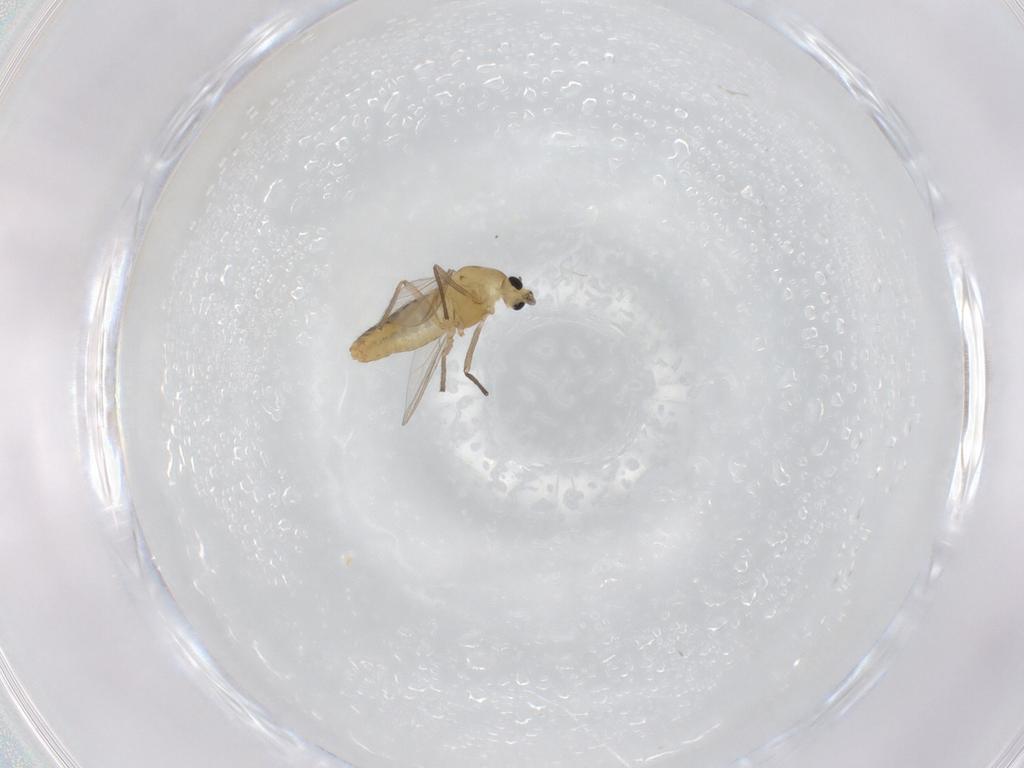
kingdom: Animalia
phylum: Arthropoda
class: Insecta
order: Diptera
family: Chironomidae
